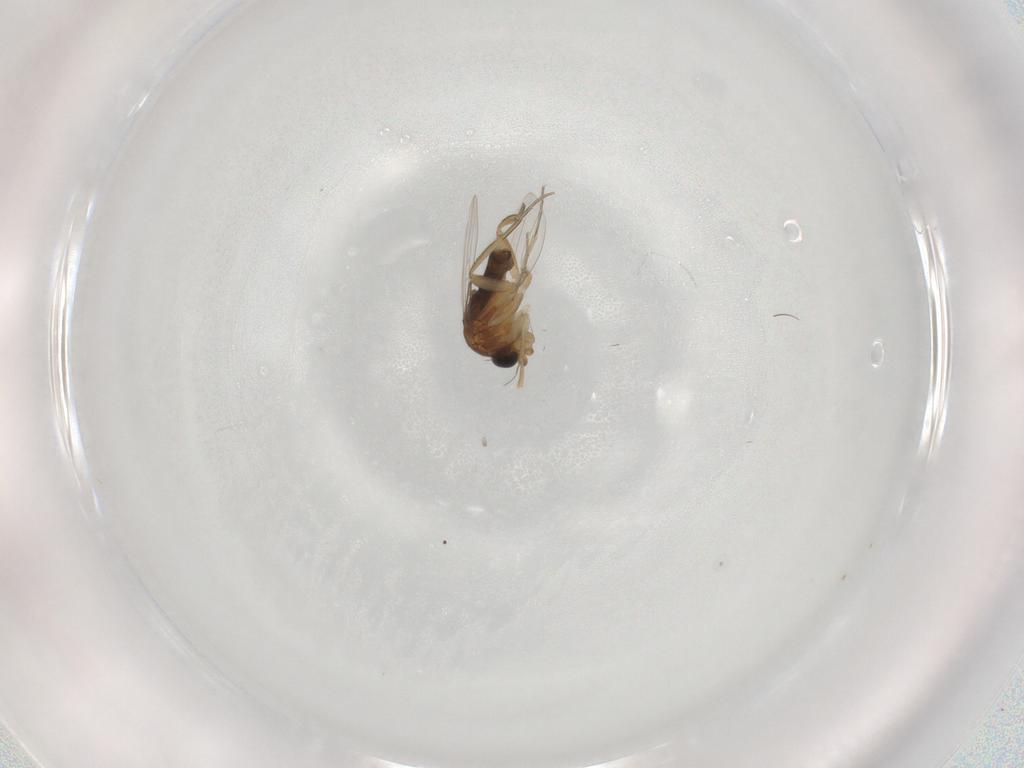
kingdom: Animalia
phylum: Arthropoda
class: Insecta
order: Diptera
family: Phoridae
